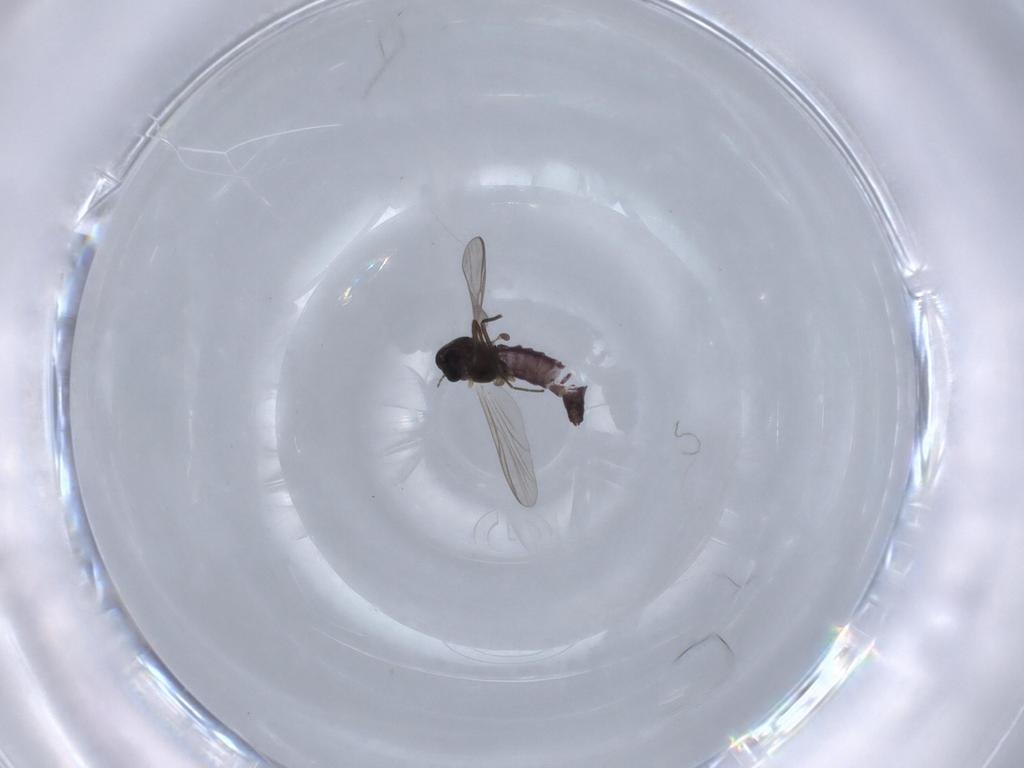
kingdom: Animalia
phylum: Arthropoda
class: Insecta
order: Diptera
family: Chironomidae
